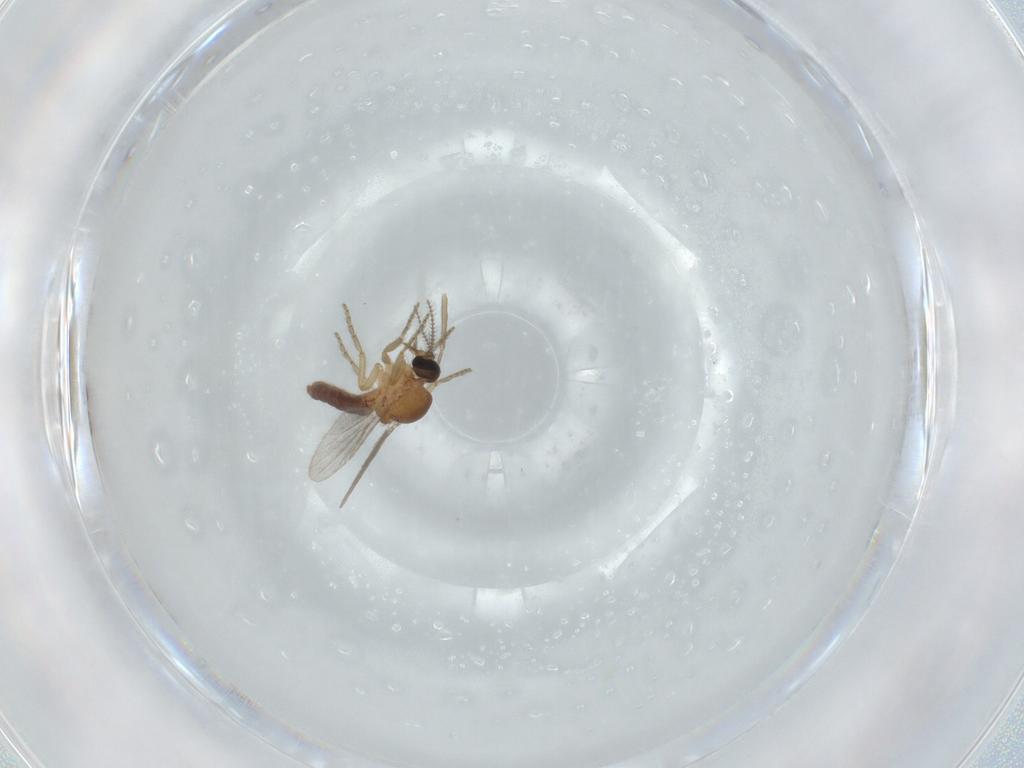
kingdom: Animalia
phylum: Arthropoda
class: Insecta
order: Diptera
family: Ceratopogonidae
